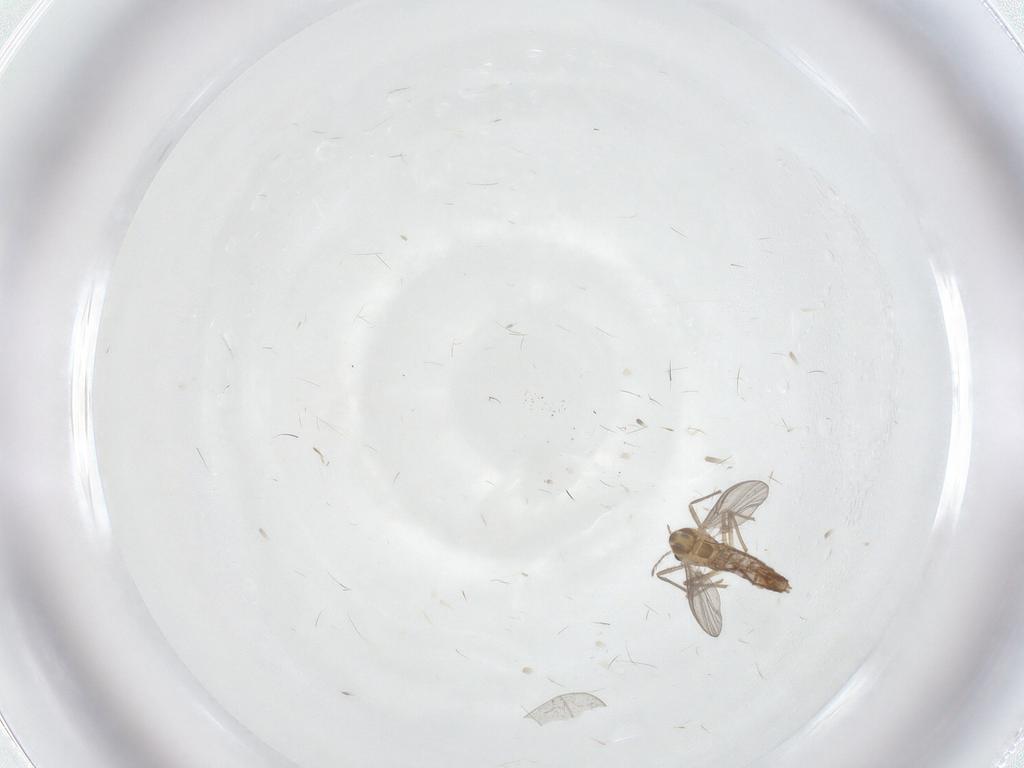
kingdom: Animalia
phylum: Arthropoda
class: Insecta
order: Diptera
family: Chironomidae
